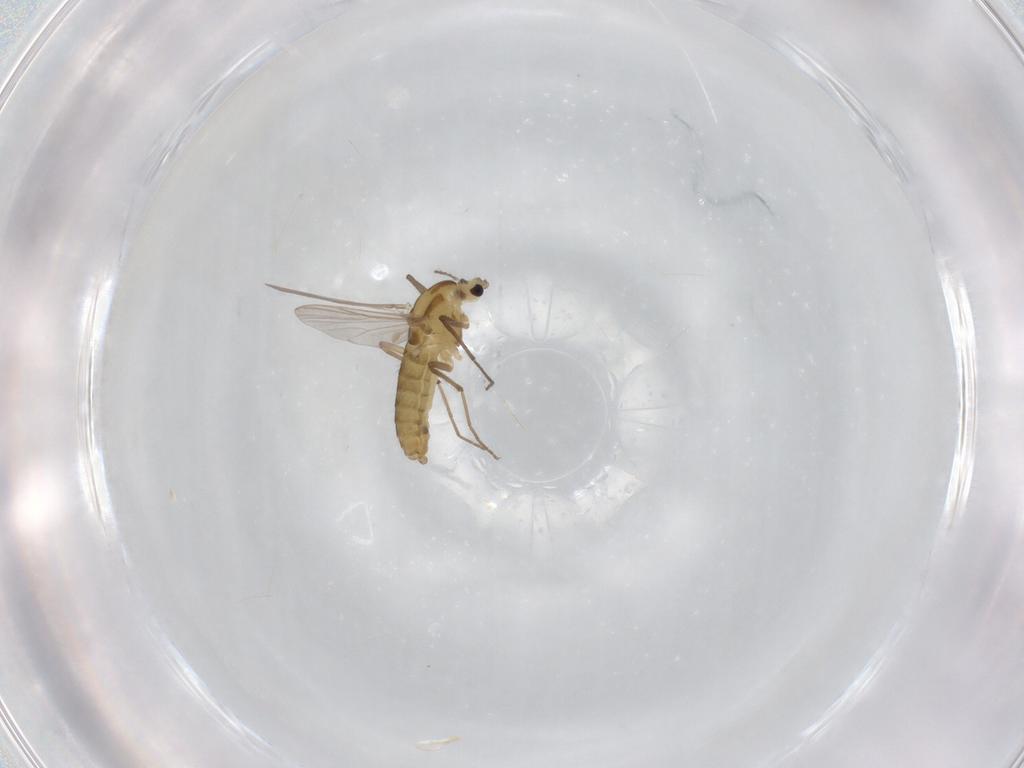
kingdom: Animalia
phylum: Arthropoda
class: Insecta
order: Diptera
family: Chironomidae
